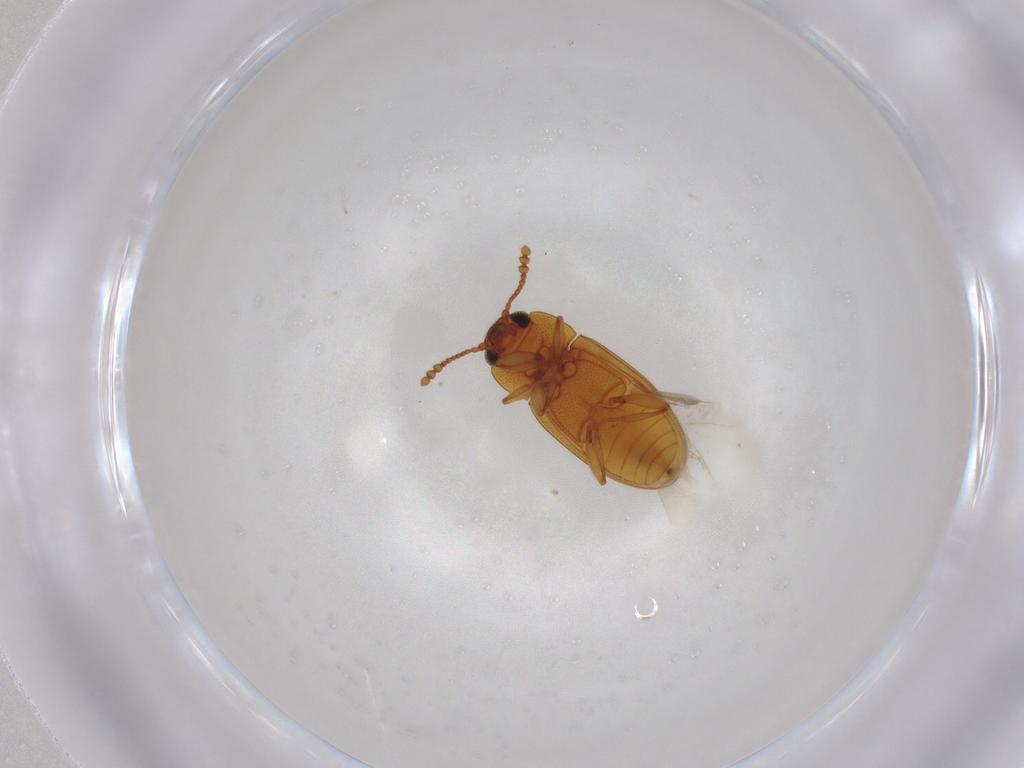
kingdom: Animalia
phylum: Arthropoda
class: Insecta
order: Coleoptera
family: Erotylidae
